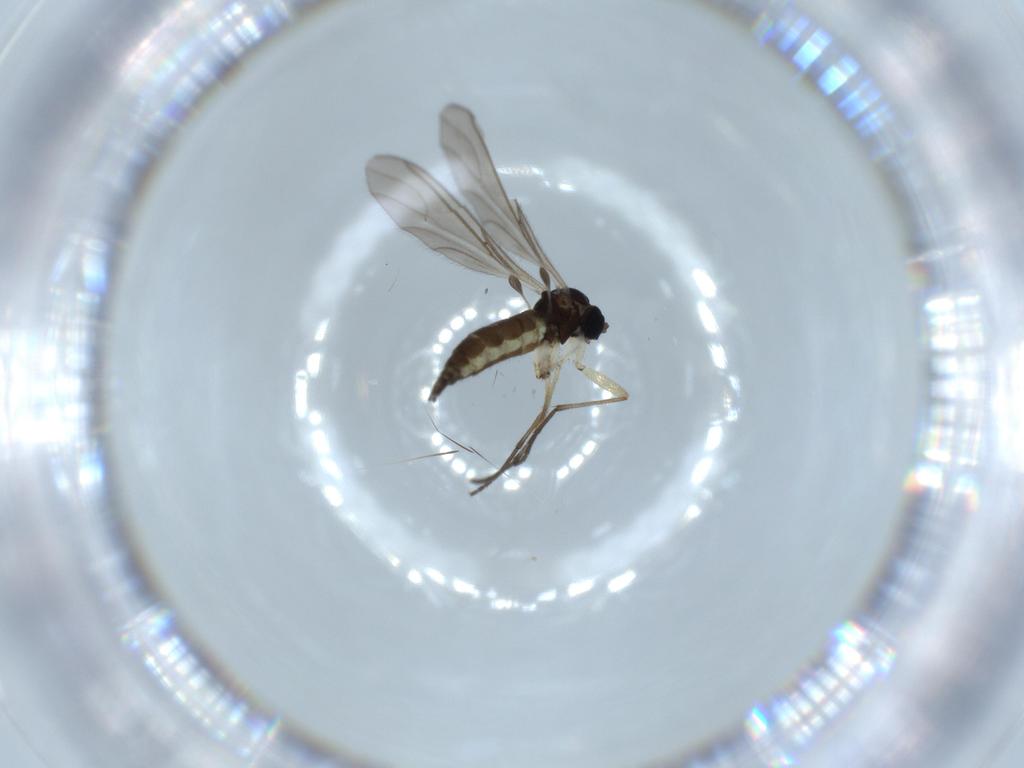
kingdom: Animalia
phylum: Arthropoda
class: Insecta
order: Diptera
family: Sciaridae
